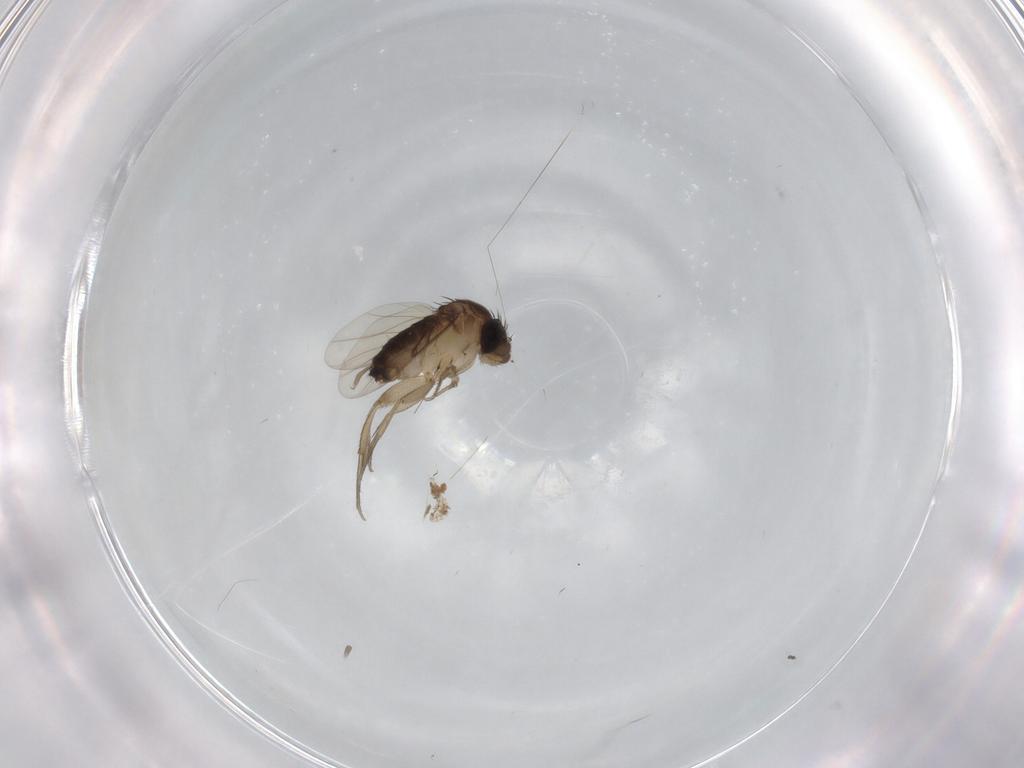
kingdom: Animalia
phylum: Arthropoda
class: Insecta
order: Diptera
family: Cecidomyiidae
